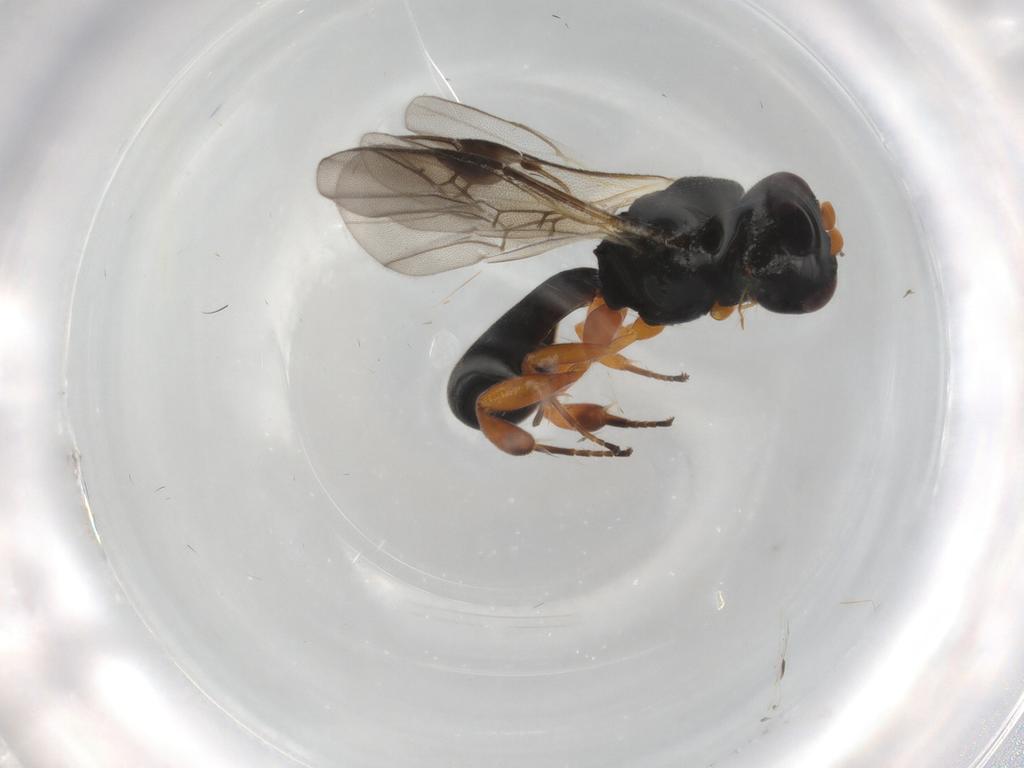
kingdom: Animalia
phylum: Arthropoda
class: Insecta
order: Hymenoptera
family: Braconidae
